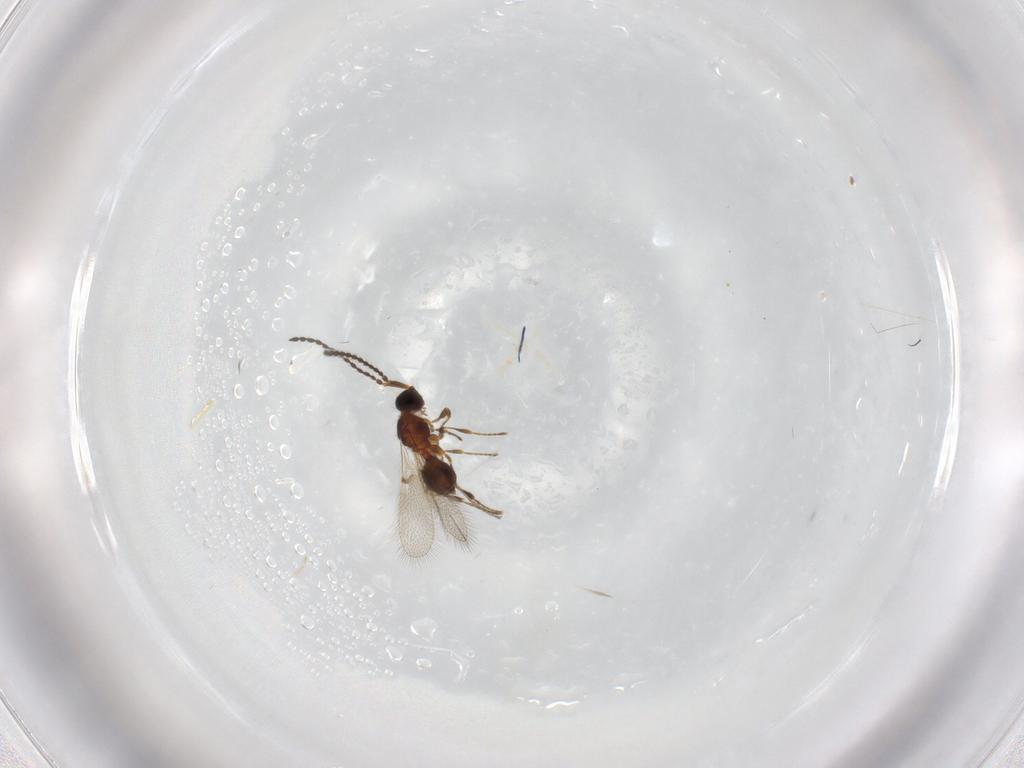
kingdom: Animalia
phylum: Arthropoda
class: Insecta
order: Hymenoptera
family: Diapriidae
